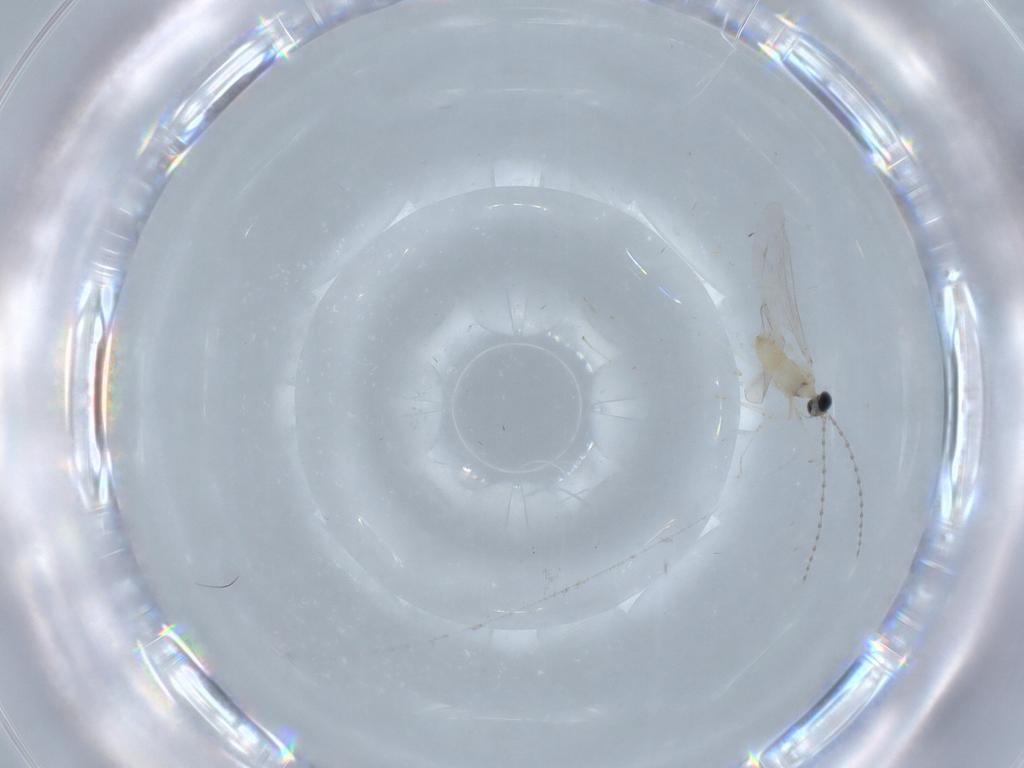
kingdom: Animalia
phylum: Arthropoda
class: Insecta
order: Diptera
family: Cecidomyiidae
